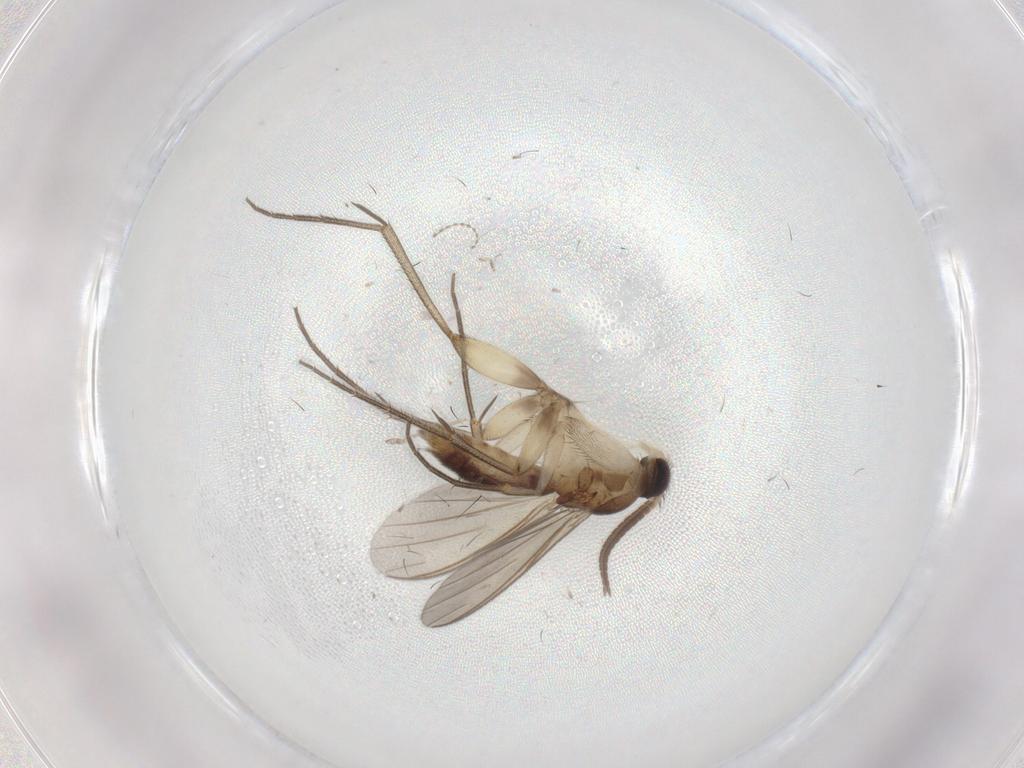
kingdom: Animalia
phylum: Arthropoda
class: Insecta
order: Diptera
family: Mycetophilidae
